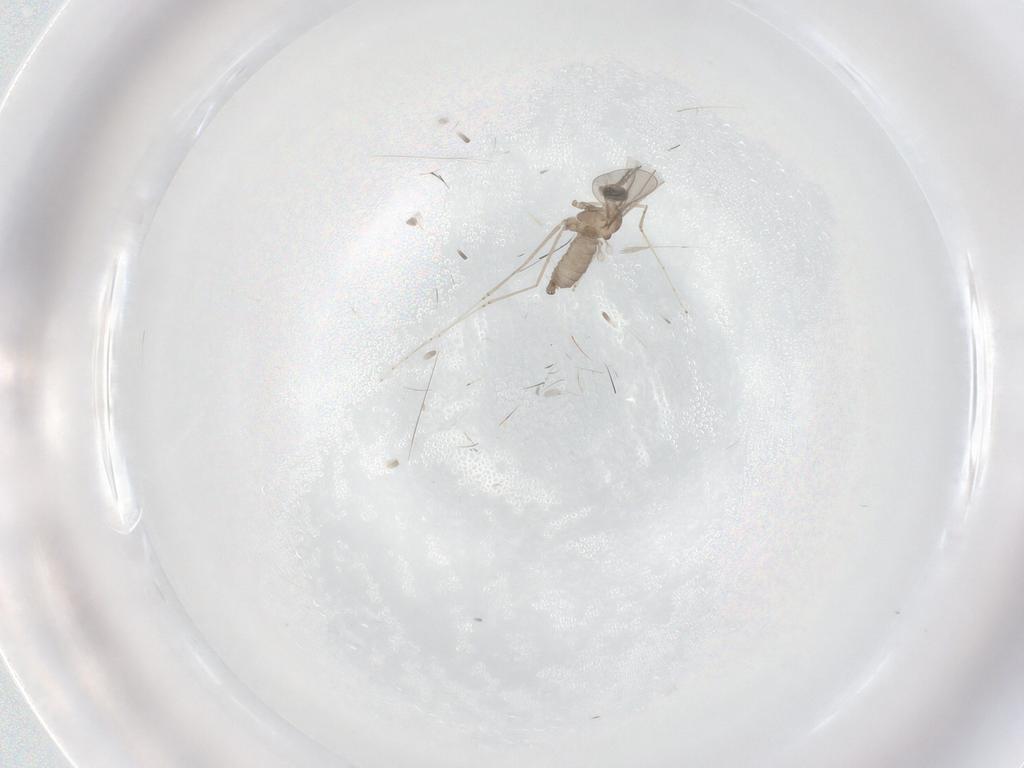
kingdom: Animalia
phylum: Arthropoda
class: Insecta
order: Diptera
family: Cecidomyiidae
